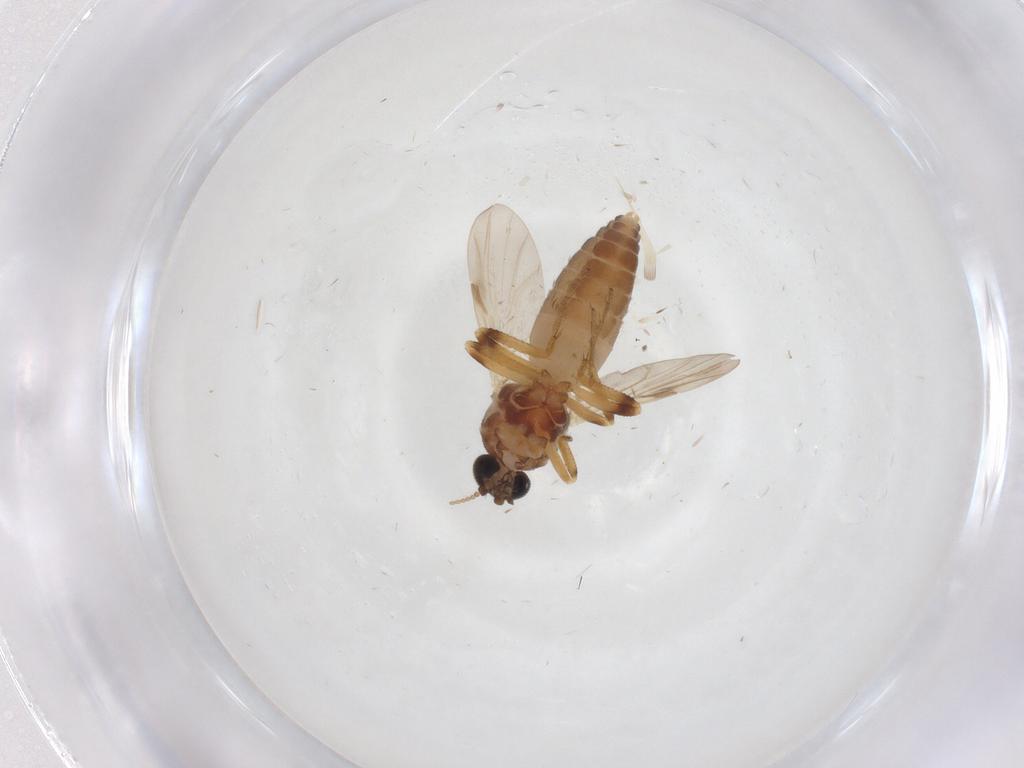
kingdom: Animalia
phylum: Arthropoda
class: Insecta
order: Diptera
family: Ceratopogonidae
